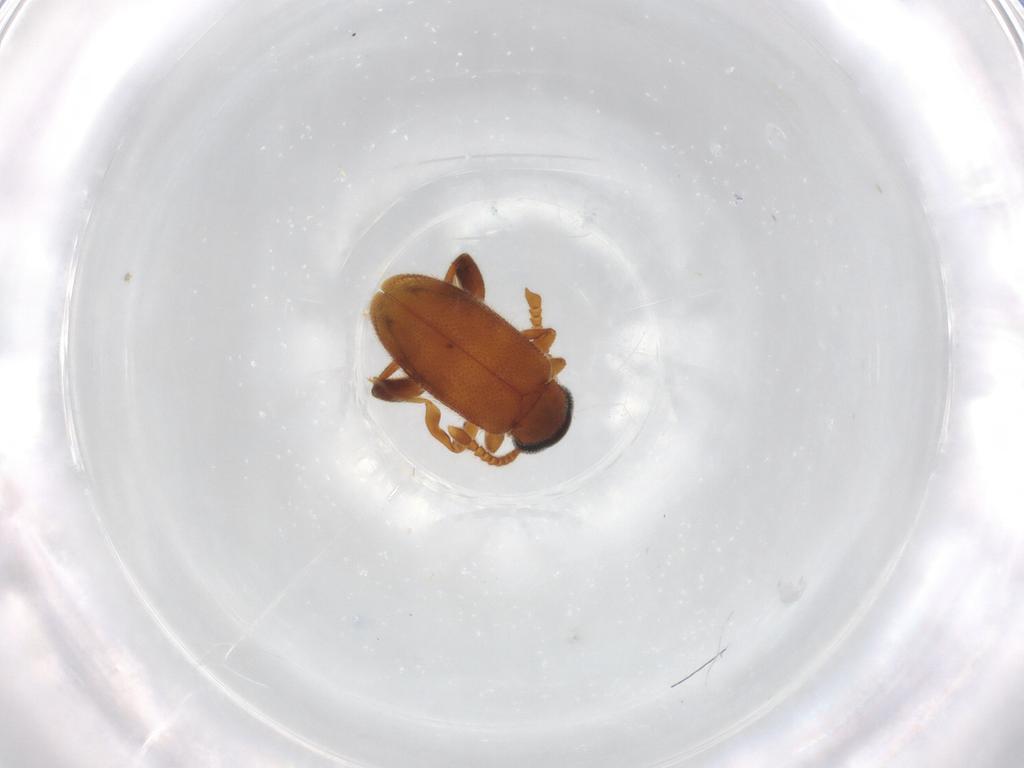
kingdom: Animalia
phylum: Arthropoda
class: Insecta
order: Coleoptera
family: Aderidae
